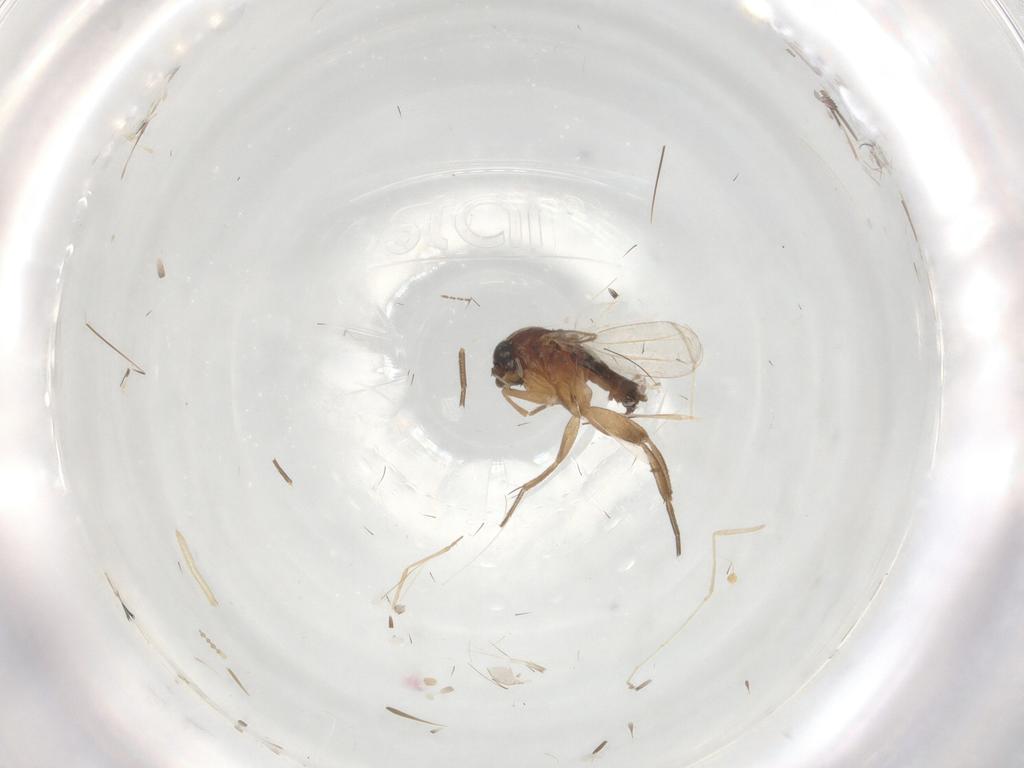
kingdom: Animalia
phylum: Arthropoda
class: Insecta
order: Diptera
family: Phoridae
